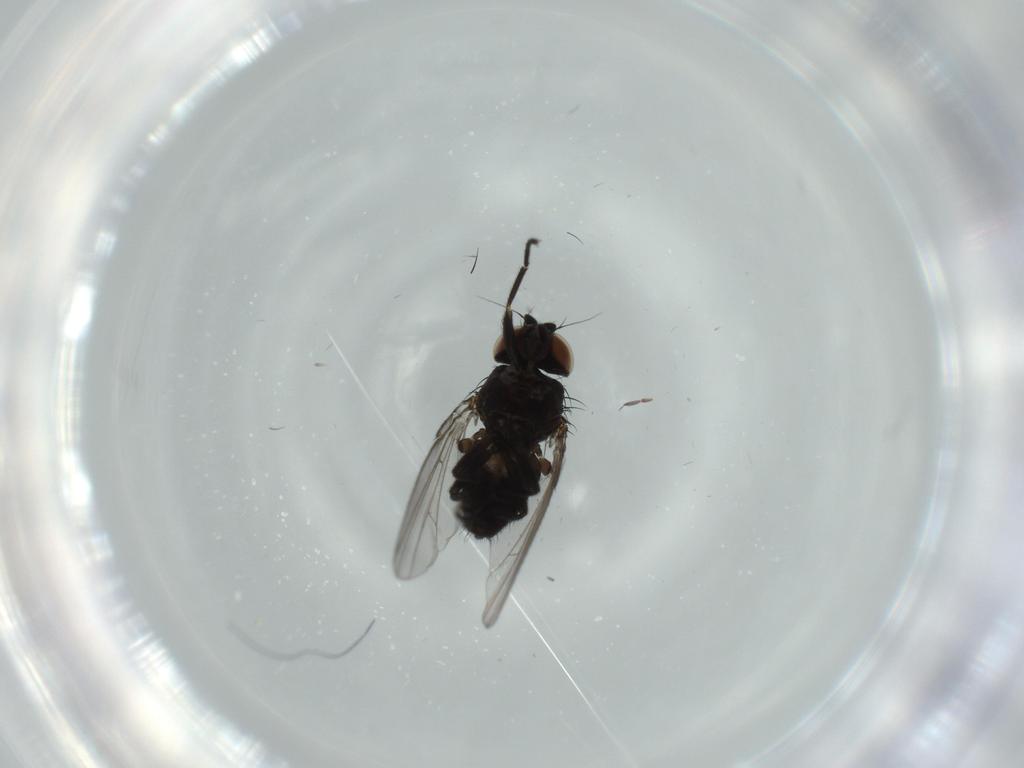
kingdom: Animalia
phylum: Arthropoda
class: Insecta
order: Diptera
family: Milichiidae
